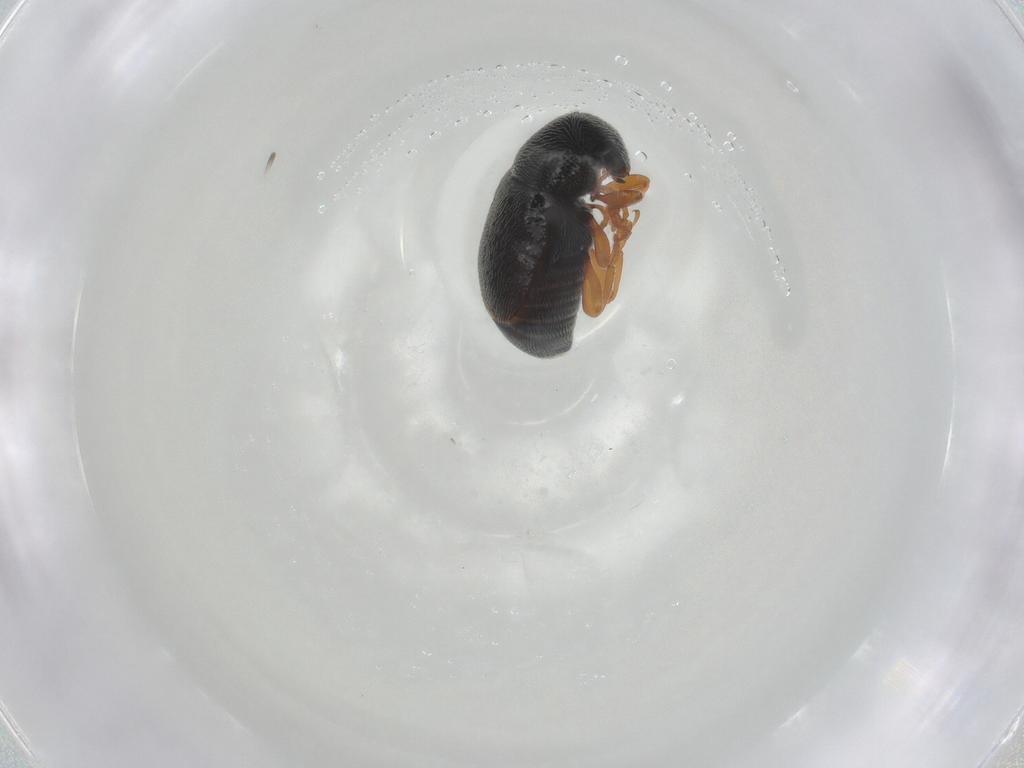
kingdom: Animalia
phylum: Arthropoda
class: Insecta
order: Coleoptera
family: Anthribidae
